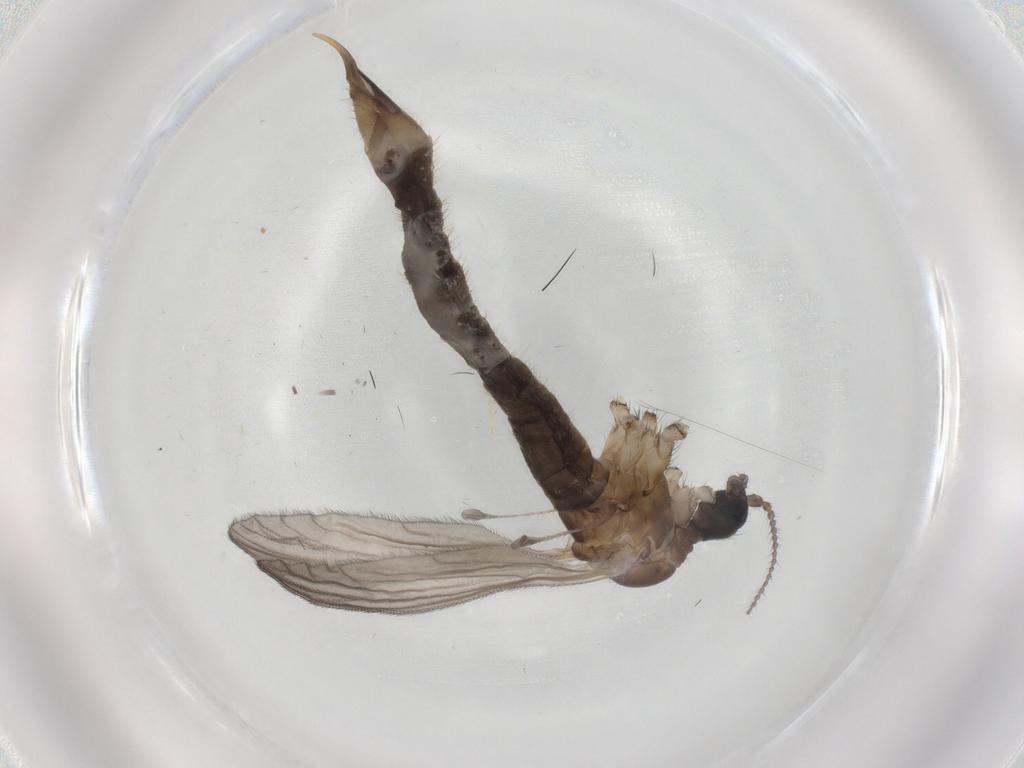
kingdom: Animalia
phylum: Arthropoda
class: Insecta
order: Diptera
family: Limoniidae
